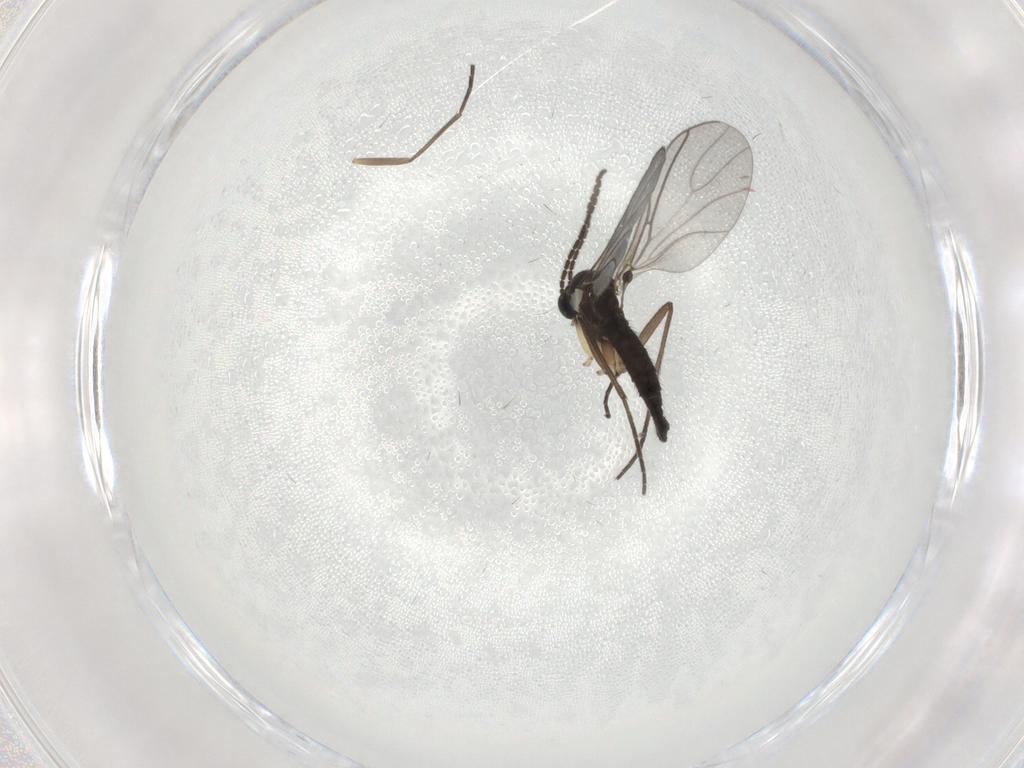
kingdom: Animalia
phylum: Arthropoda
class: Insecta
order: Diptera
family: Sciaridae
